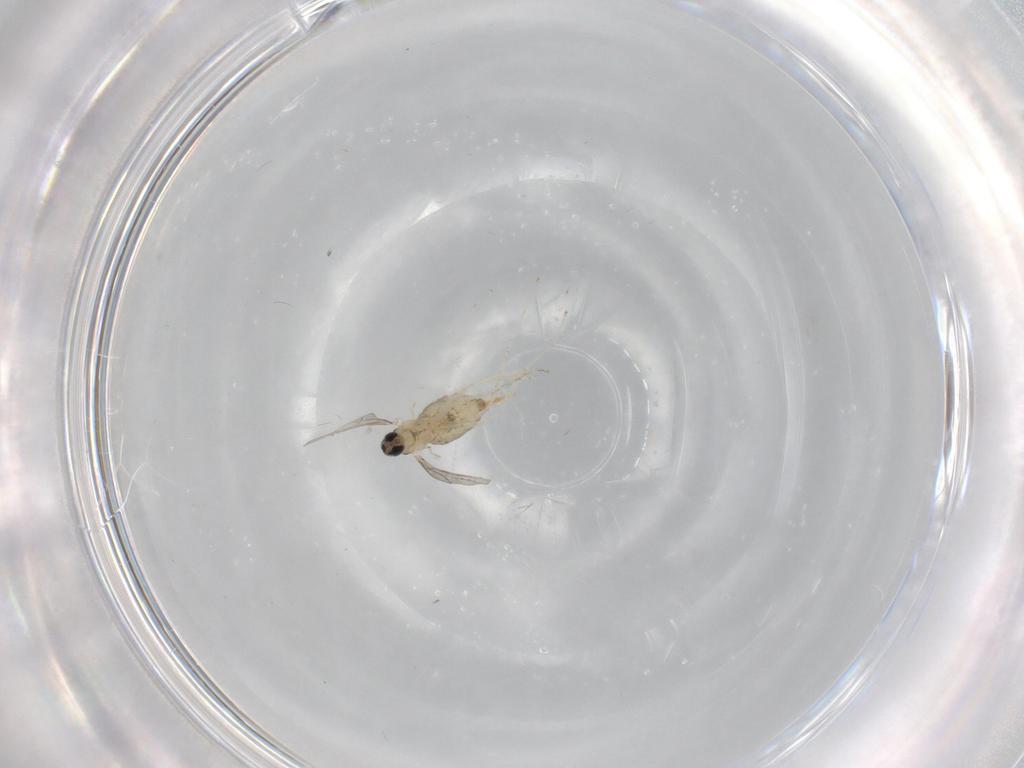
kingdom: Animalia
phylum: Arthropoda
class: Insecta
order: Diptera
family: Cecidomyiidae
